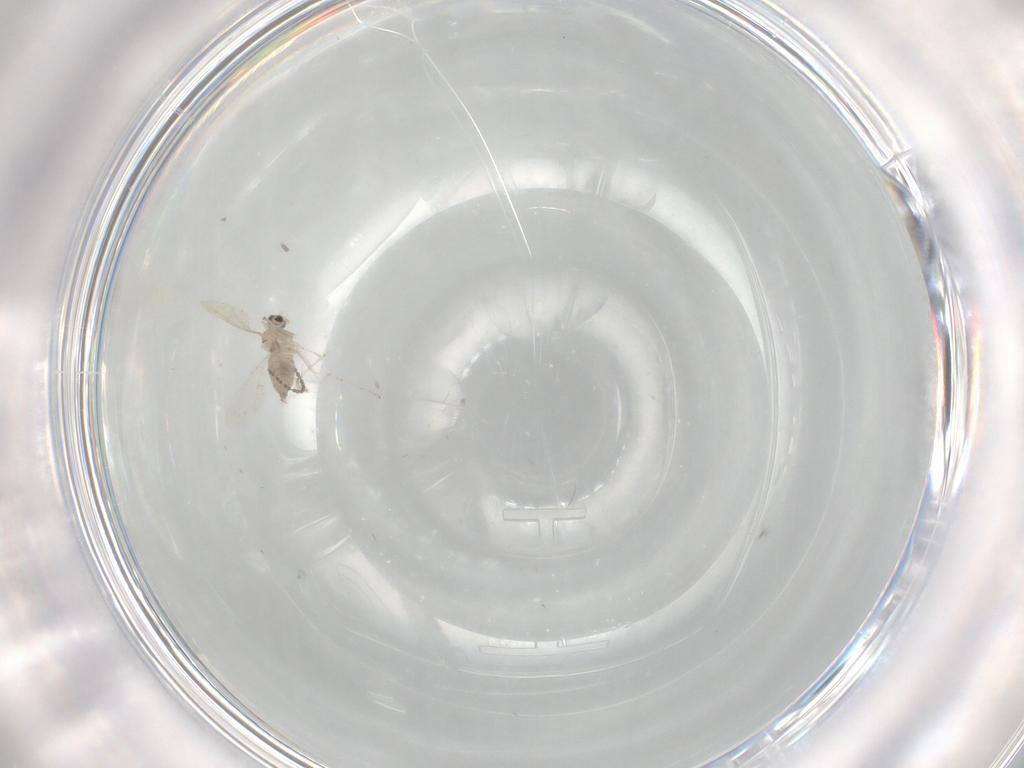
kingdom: Animalia
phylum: Arthropoda
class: Insecta
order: Diptera
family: Cecidomyiidae
